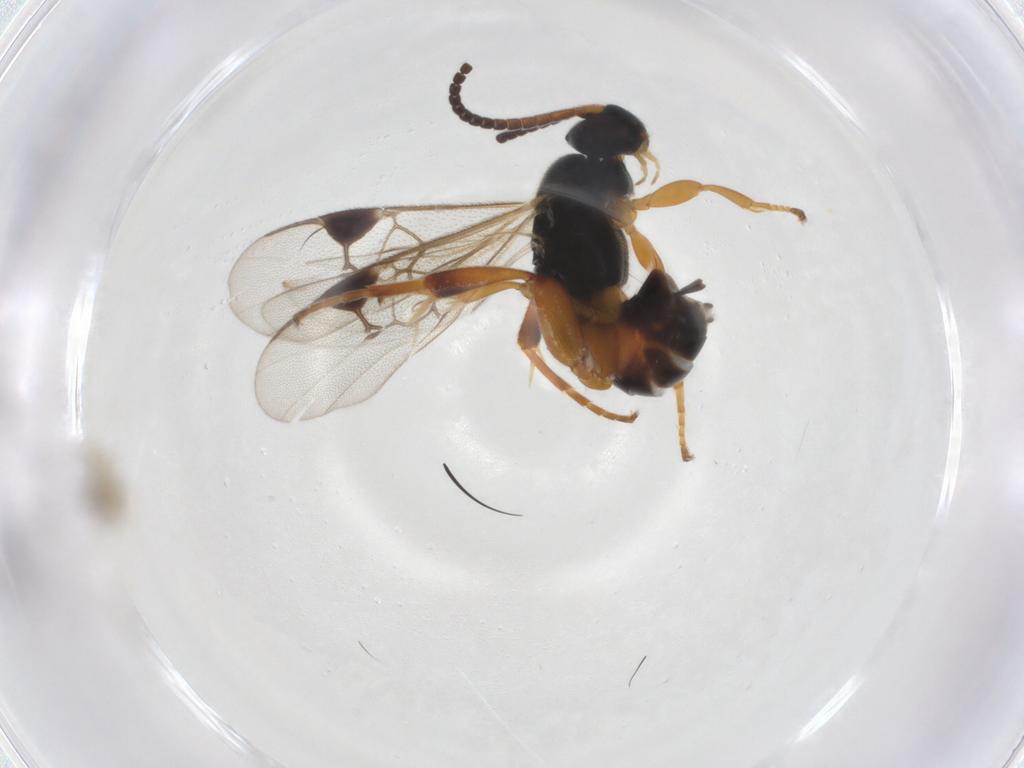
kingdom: Animalia
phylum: Arthropoda
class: Insecta
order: Hymenoptera
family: Braconidae
